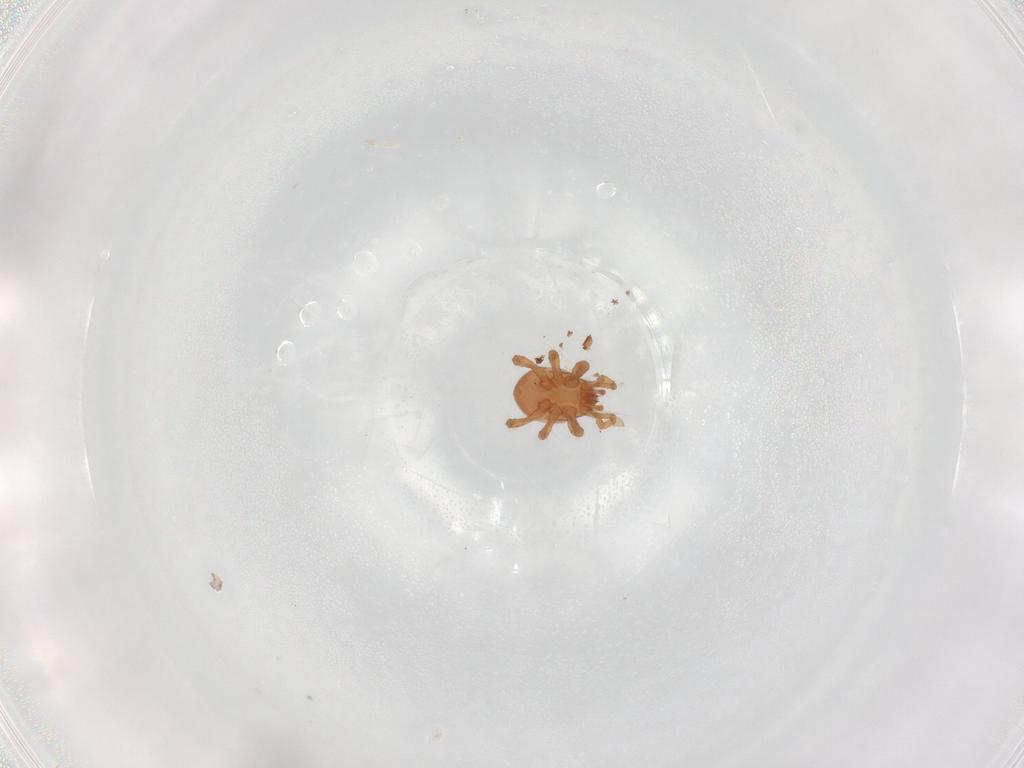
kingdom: Animalia
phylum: Arthropoda
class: Arachnida
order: Sarcoptiformes
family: Humerobatidae
